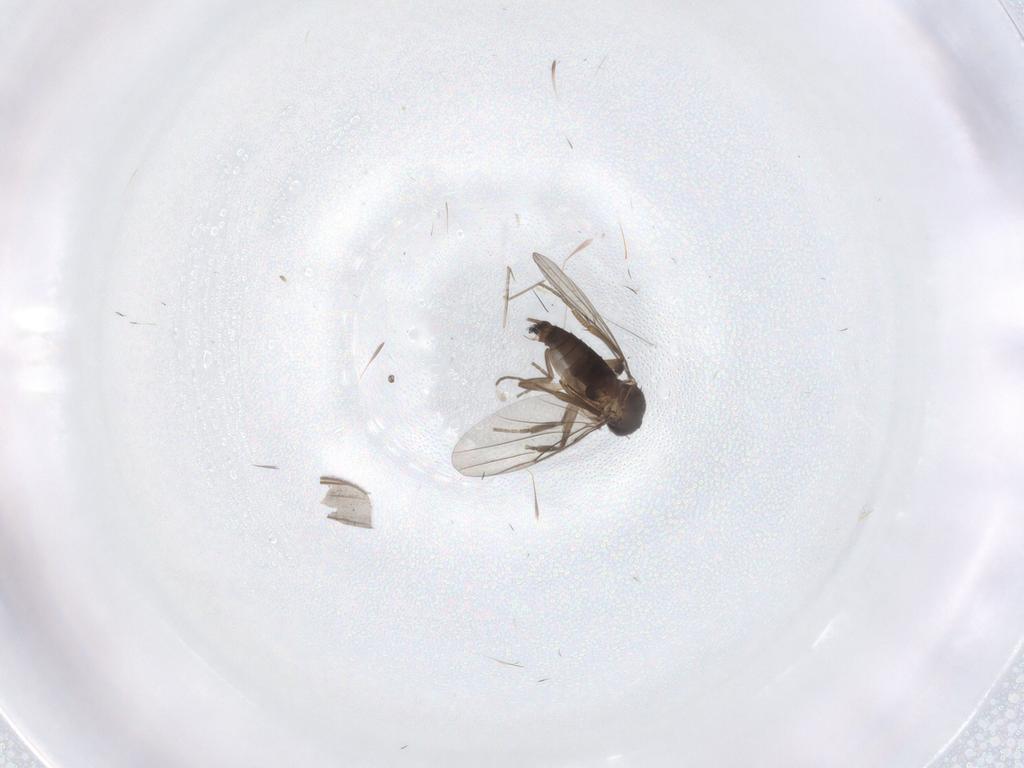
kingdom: Animalia
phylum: Arthropoda
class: Insecta
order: Diptera
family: Phoridae
